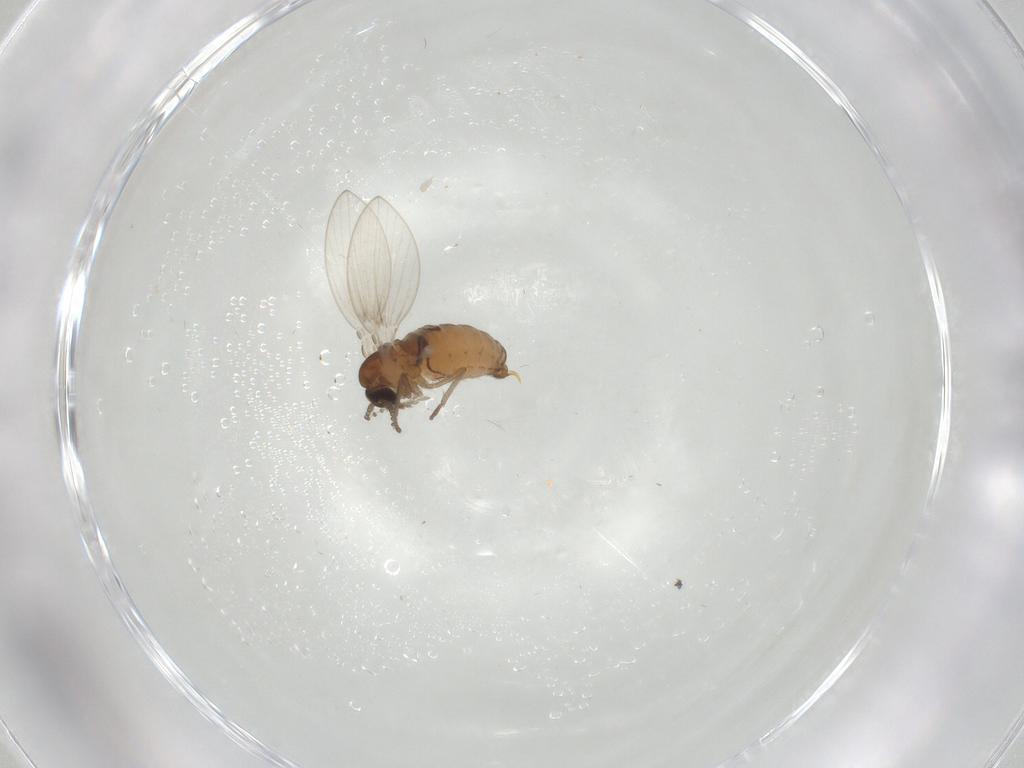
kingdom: Animalia
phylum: Arthropoda
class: Insecta
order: Diptera
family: Psychodidae
